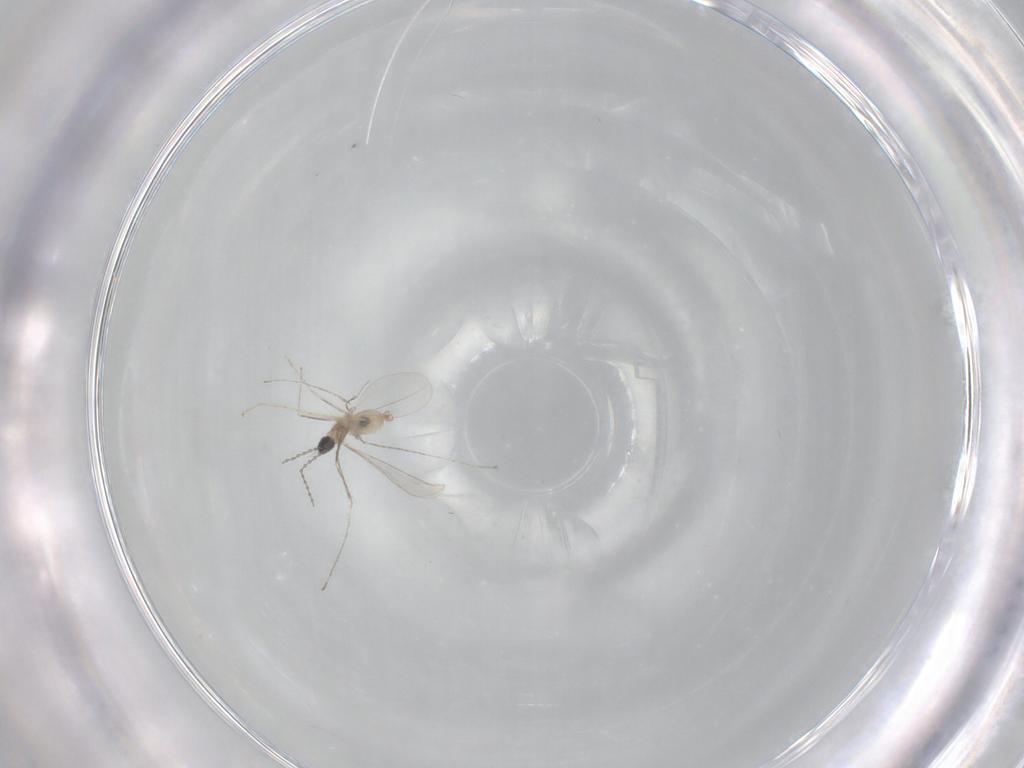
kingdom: Animalia
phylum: Arthropoda
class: Insecta
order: Diptera
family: Cecidomyiidae
